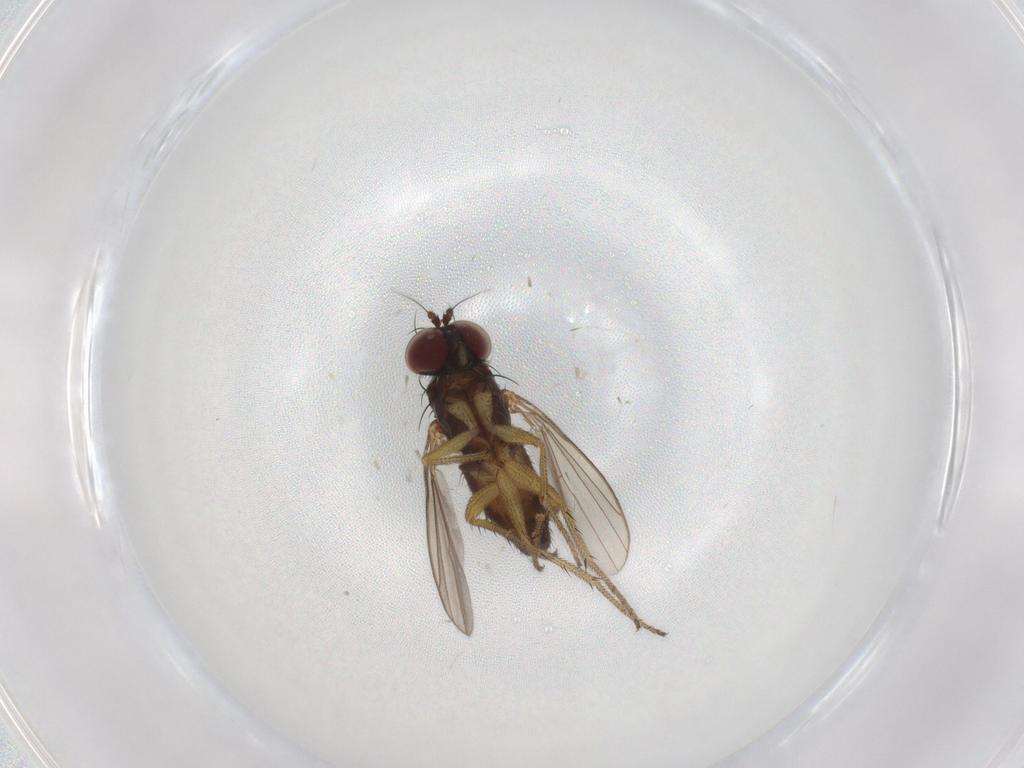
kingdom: Animalia
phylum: Arthropoda
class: Insecta
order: Diptera
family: Dolichopodidae
